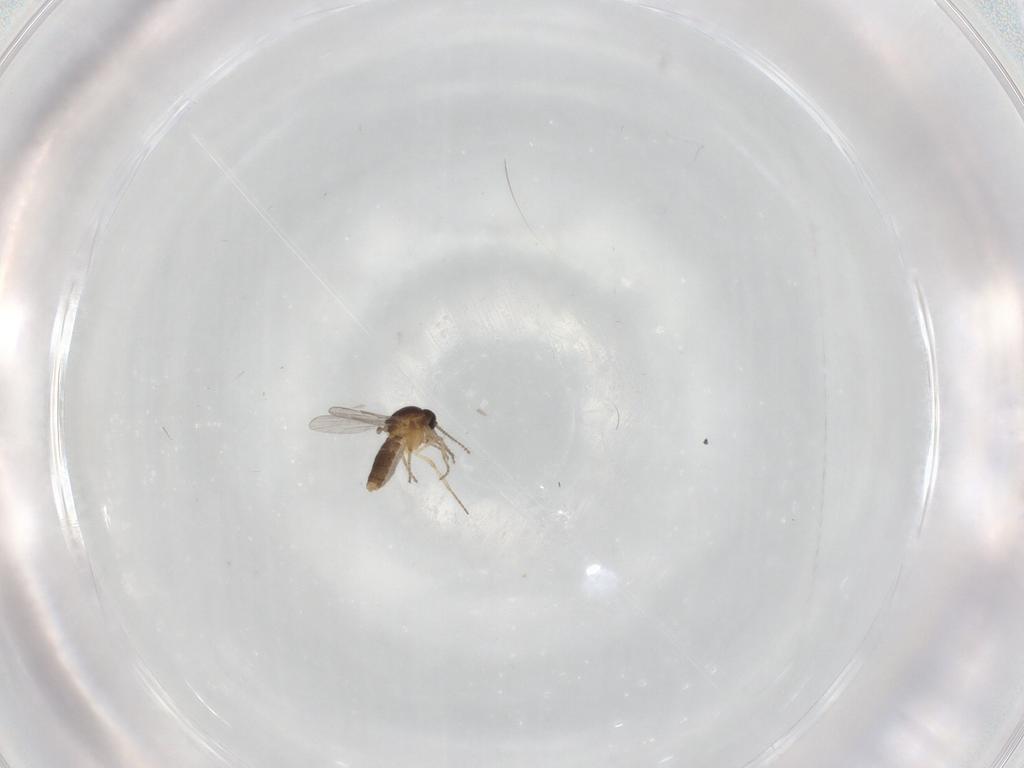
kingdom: Animalia
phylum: Arthropoda
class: Insecta
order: Diptera
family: Ceratopogonidae
